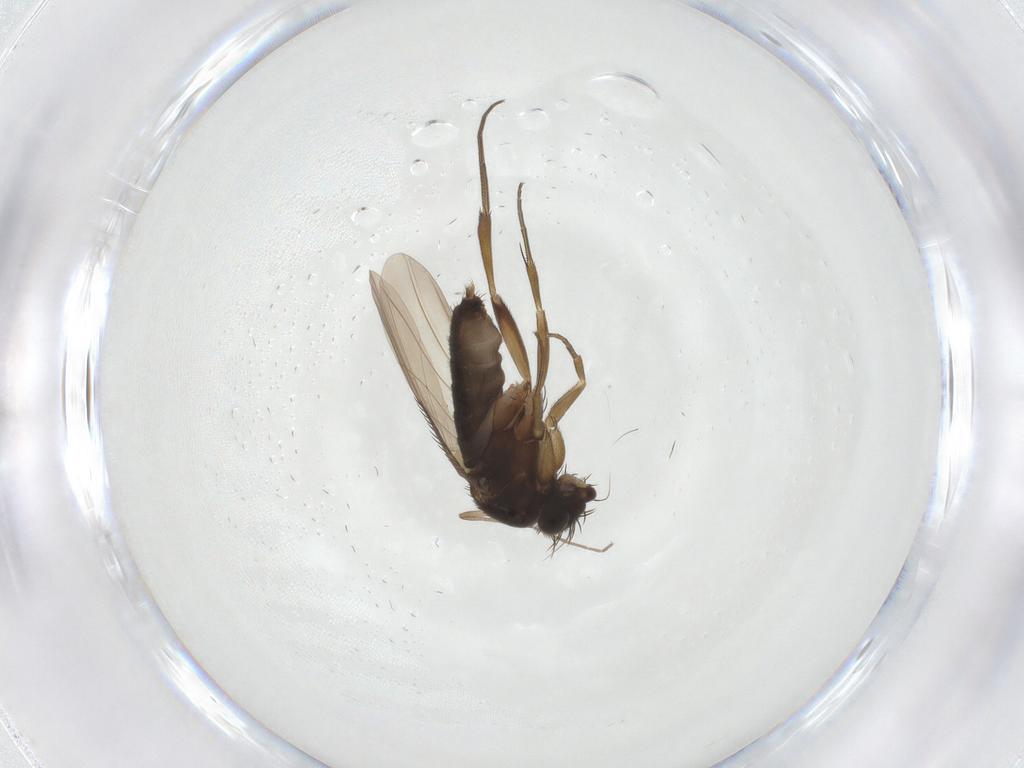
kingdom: Animalia
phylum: Arthropoda
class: Insecta
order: Diptera
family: Phoridae
